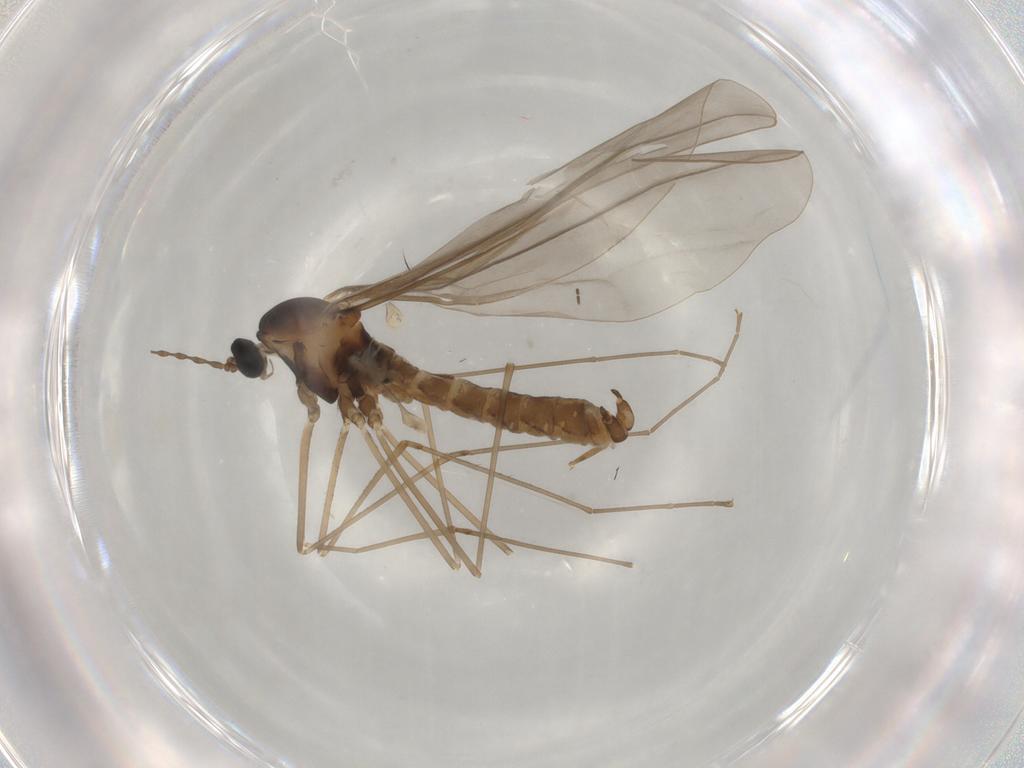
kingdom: Animalia
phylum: Arthropoda
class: Insecta
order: Diptera
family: Cecidomyiidae
